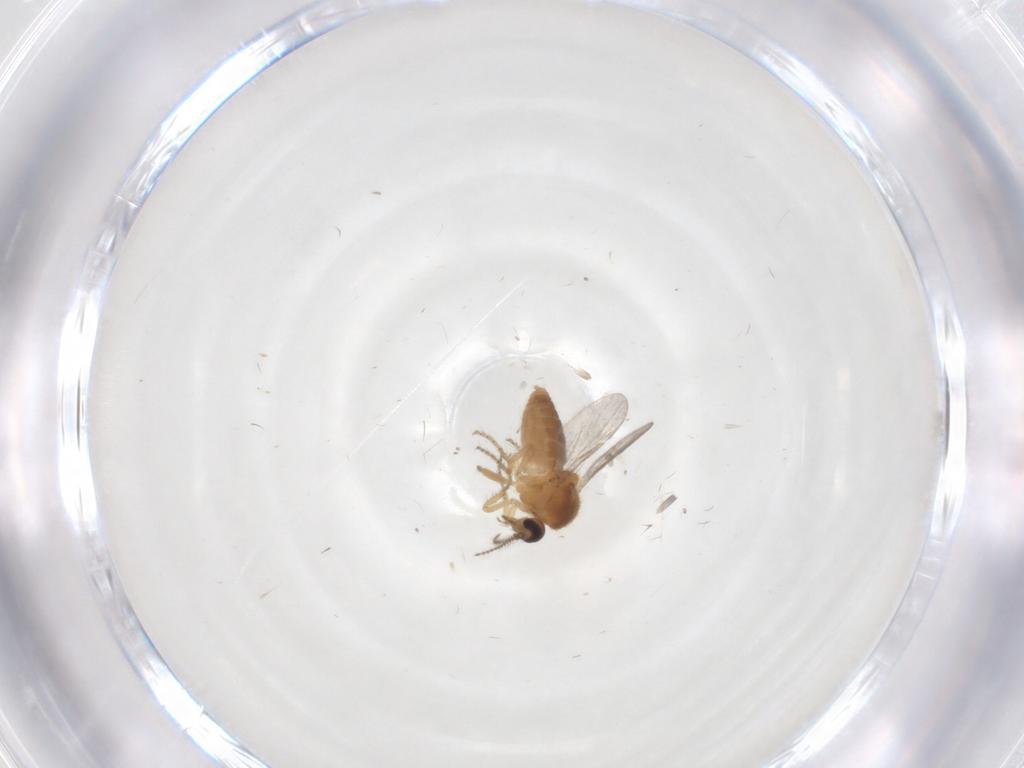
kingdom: Animalia
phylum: Arthropoda
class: Insecta
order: Diptera
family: Ceratopogonidae
